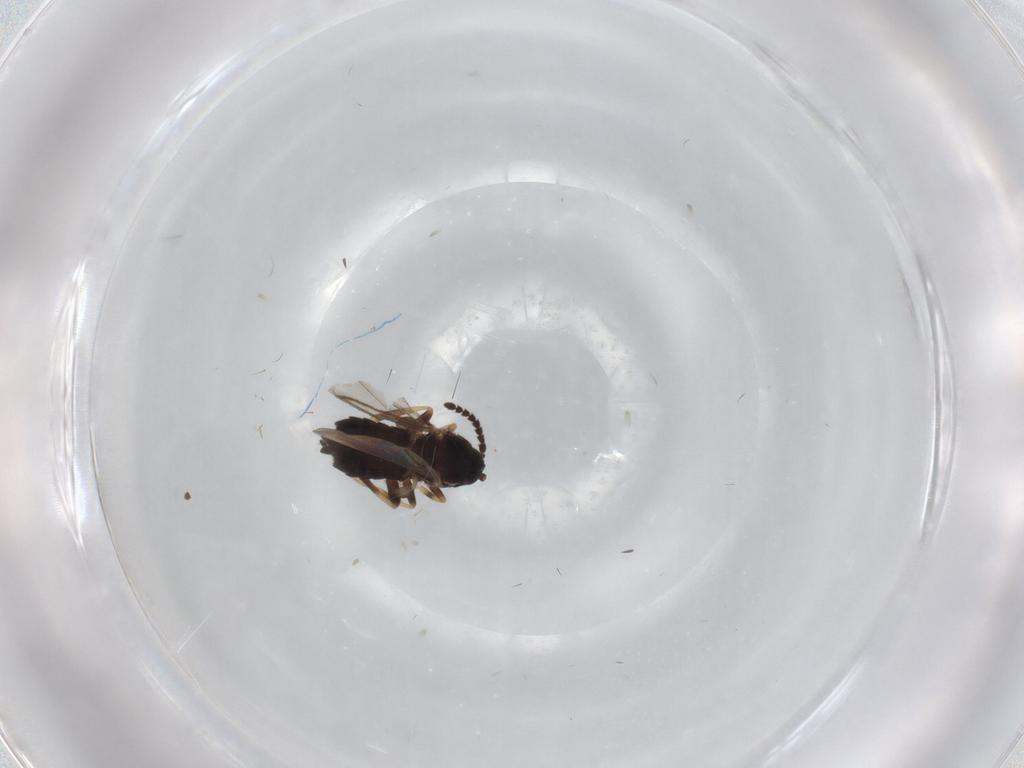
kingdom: Animalia
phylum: Arthropoda
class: Insecta
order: Diptera
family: Scatopsidae
